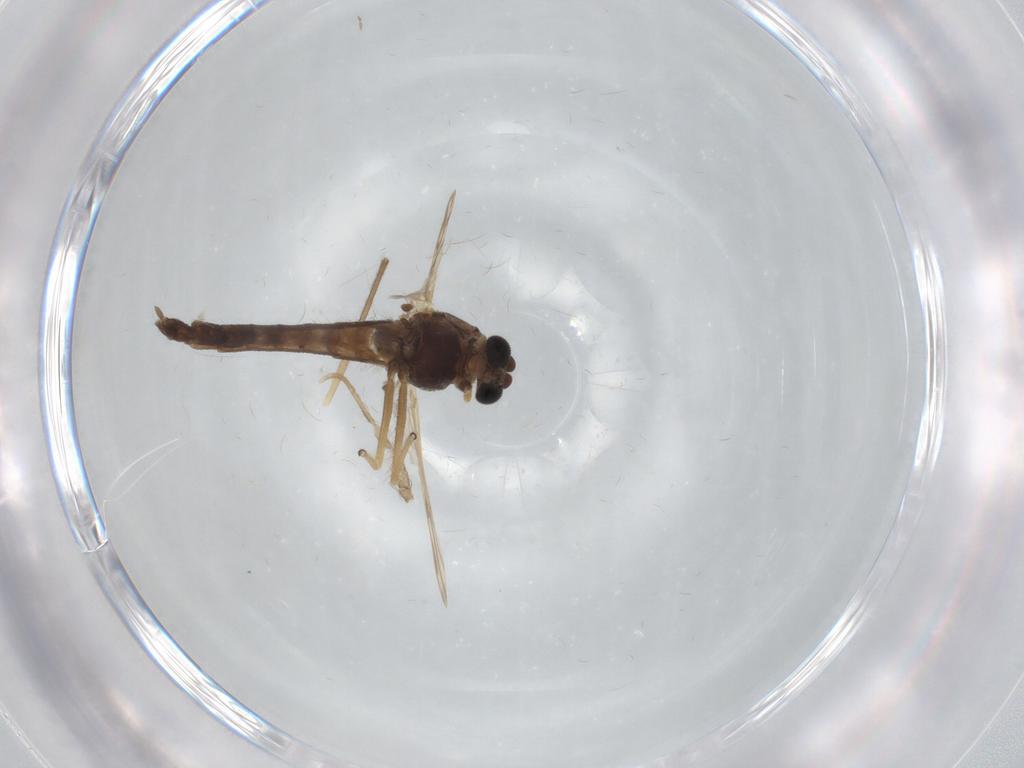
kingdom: Animalia
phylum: Arthropoda
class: Insecta
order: Diptera
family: Chironomidae
